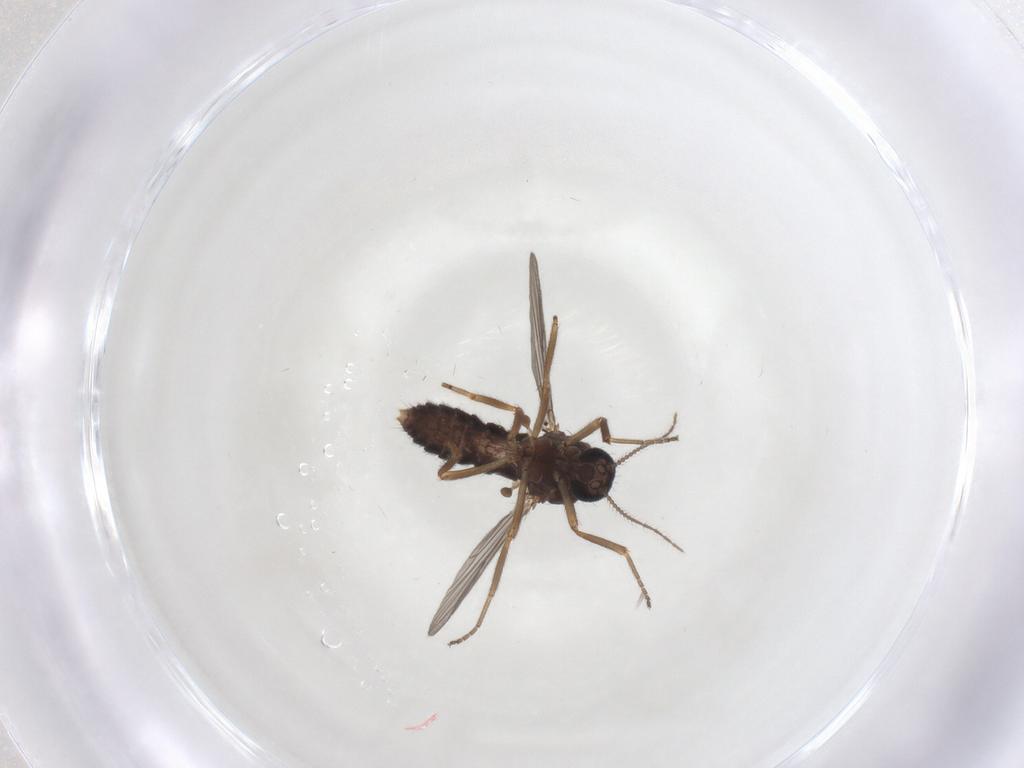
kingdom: Animalia
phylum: Arthropoda
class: Insecta
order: Diptera
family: Ceratopogonidae
